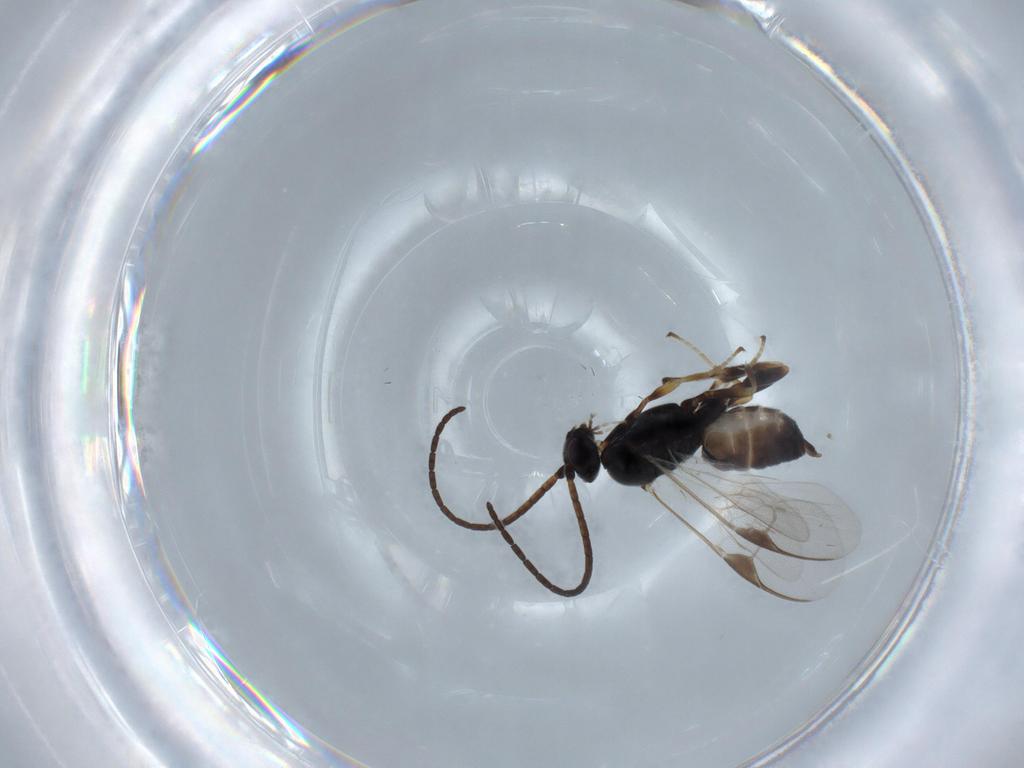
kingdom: Animalia
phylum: Arthropoda
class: Insecta
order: Hymenoptera
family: Braconidae
